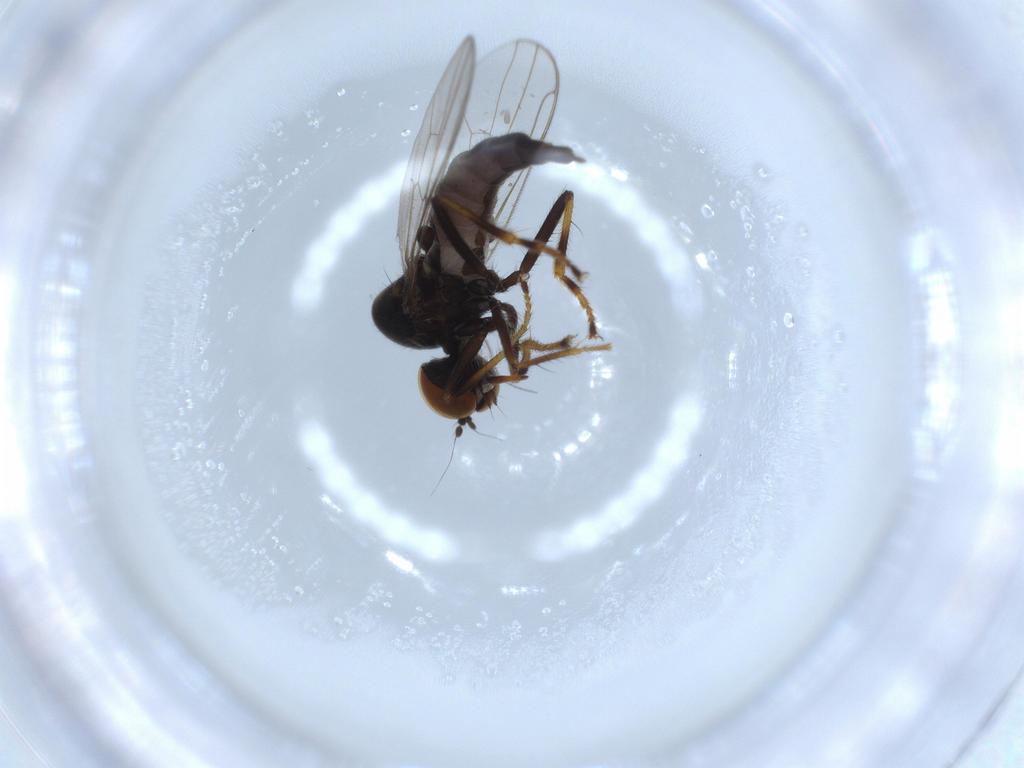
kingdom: Animalia
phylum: Arthropoda
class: Insecta
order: Diptera
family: Hybotidae
